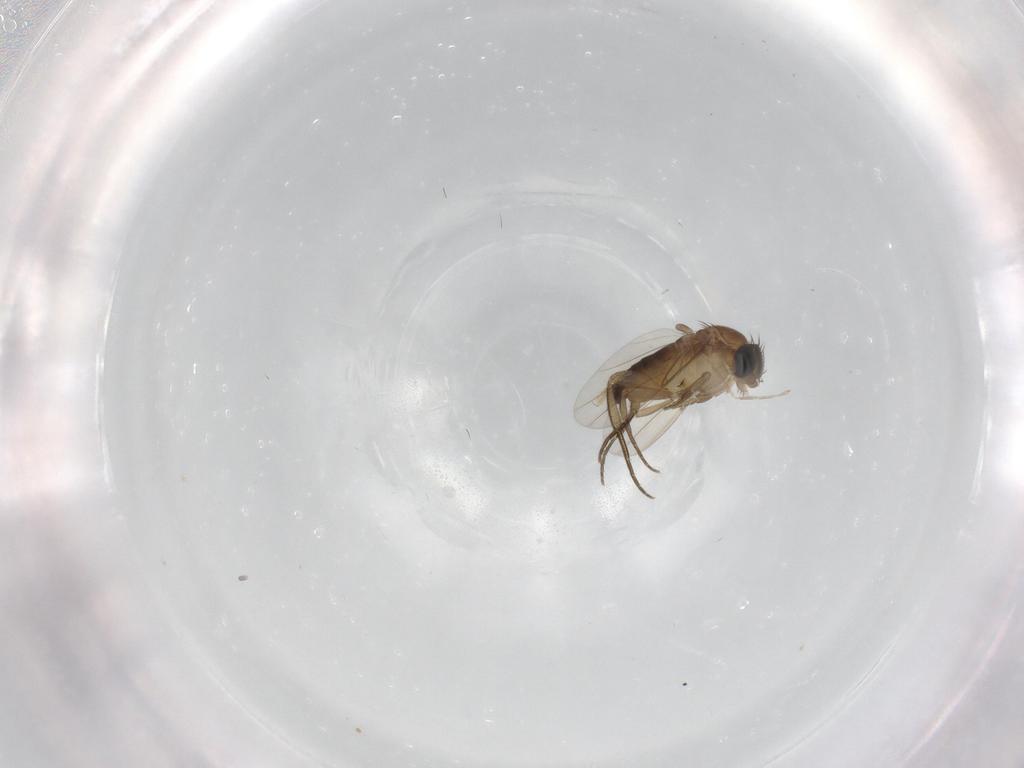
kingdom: Animalia
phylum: Arthropoda
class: Insecta
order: Diptera
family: Phoridae
